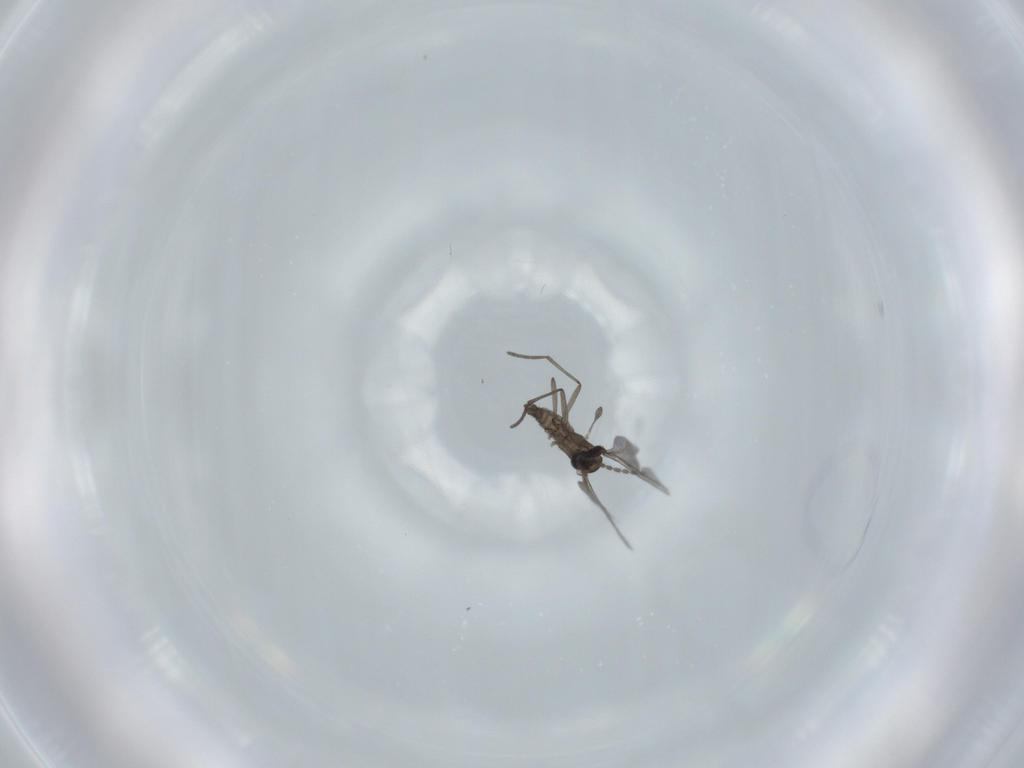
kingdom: Animalia
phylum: Arthropoda
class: Insecta
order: Diptera
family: Sciaridae
